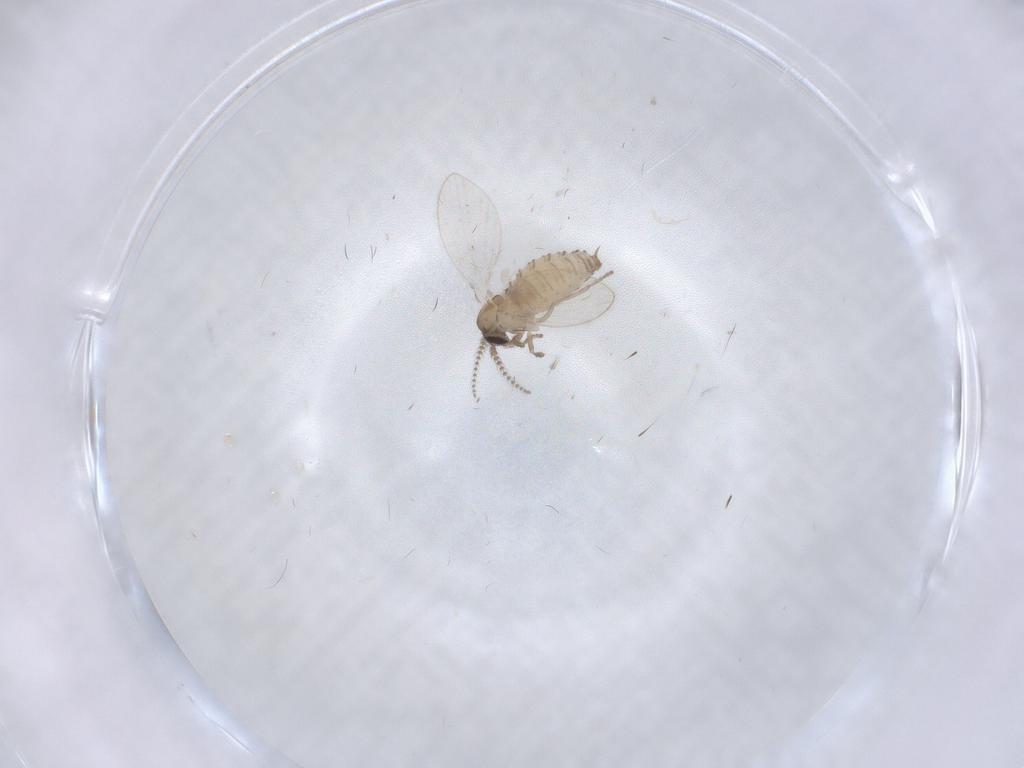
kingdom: Animalia
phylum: Arthropoda
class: Insecta
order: Diptera
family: Psychodidae
